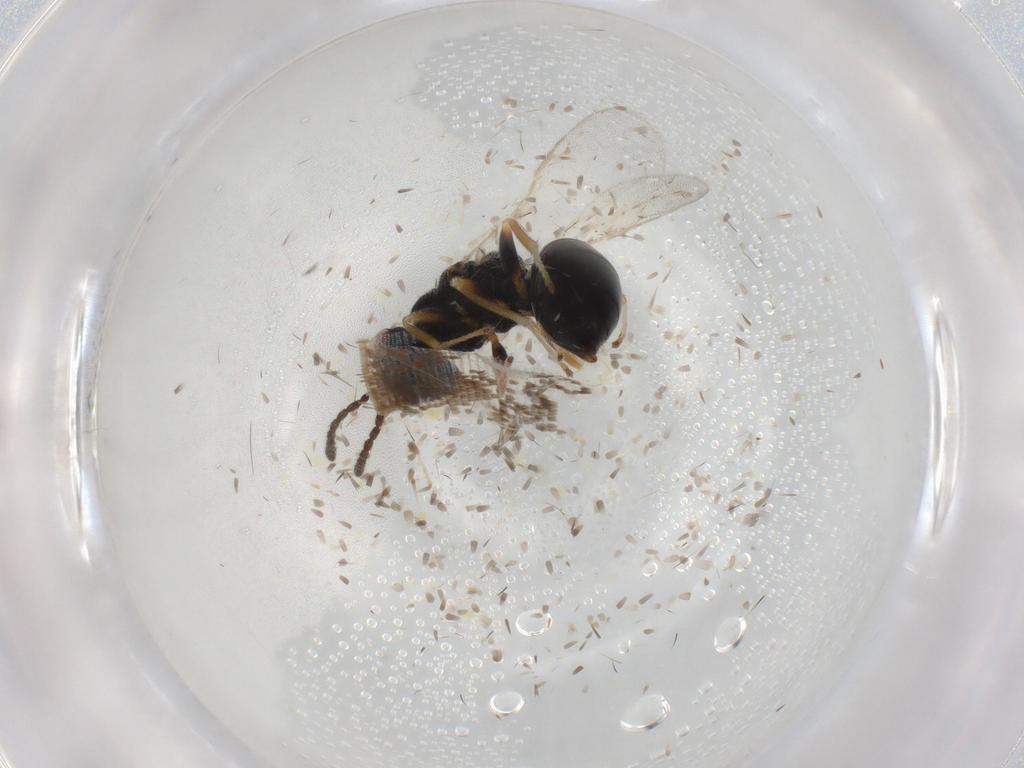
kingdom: Animalia
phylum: Arthropoda
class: Insecta
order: Hymenoptera
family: Eurytomidae
